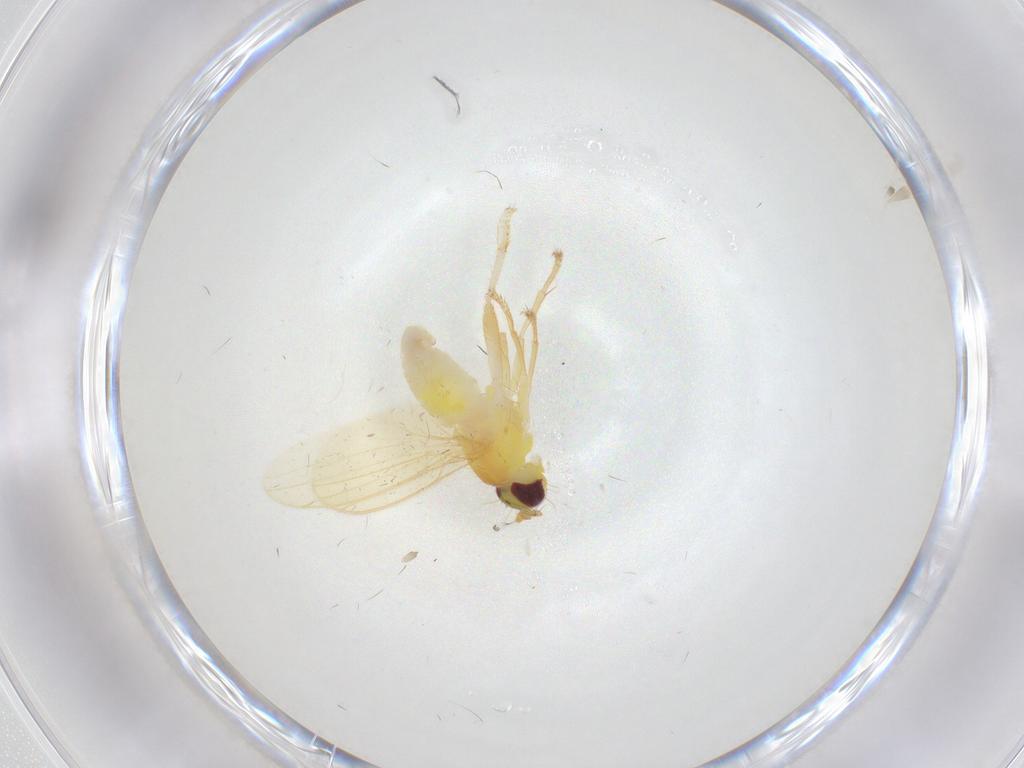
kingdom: Animalia
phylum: Arthropoda
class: Insecta
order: Diptera
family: Periscelididae
